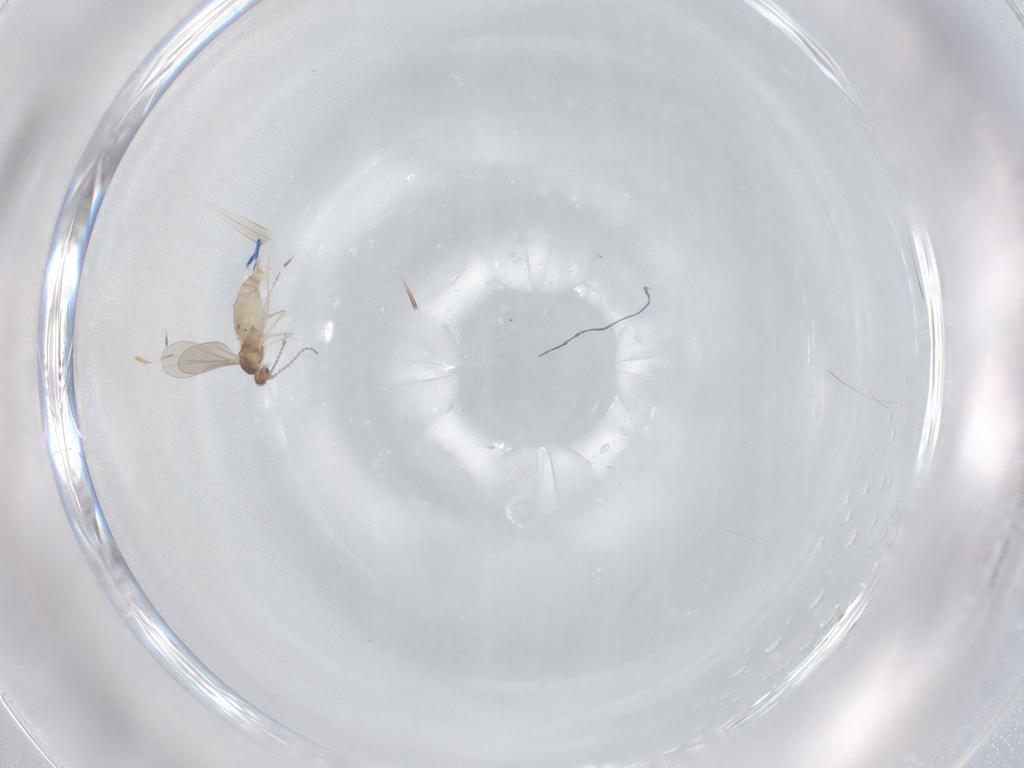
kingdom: Animalia
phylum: Arthropoda
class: Insecta
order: Diptera
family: Cecidomyiidae
